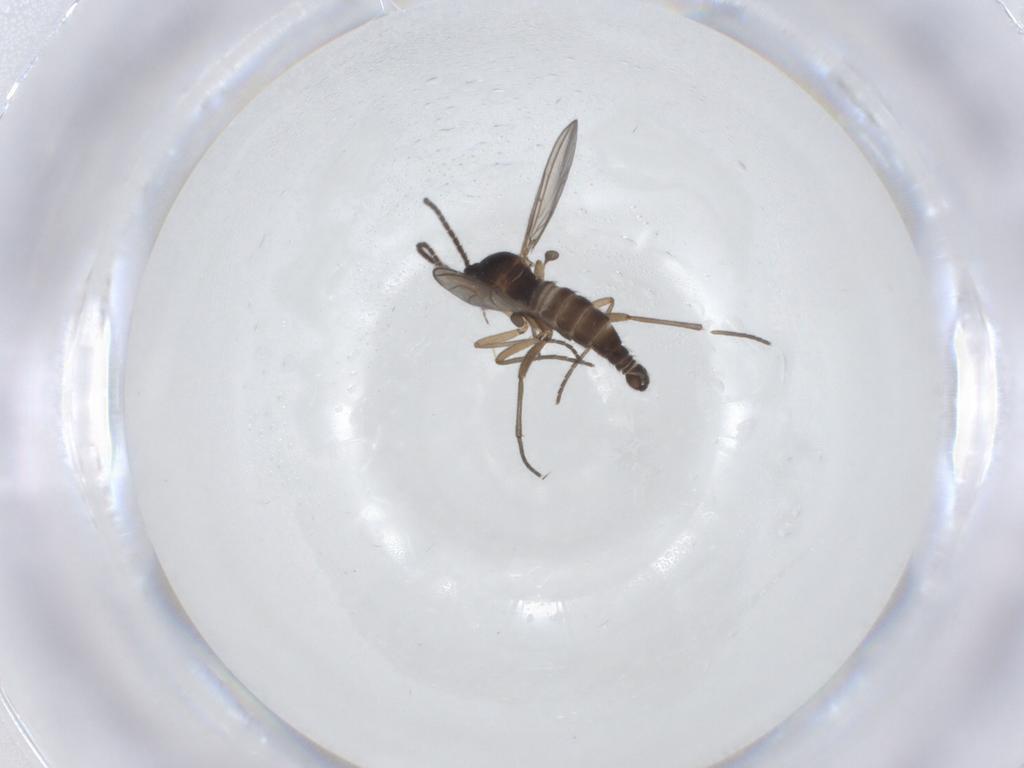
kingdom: Animalia
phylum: Arthropoda
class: Insecta
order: Diptera
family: Sciaridae
